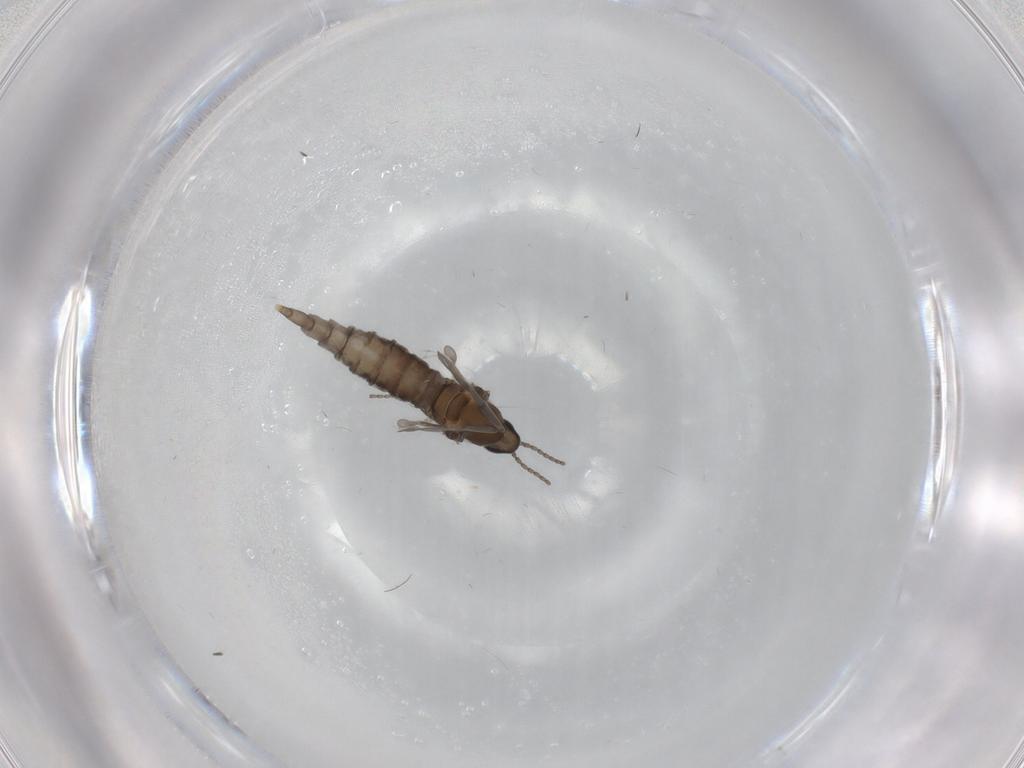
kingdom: Animalia
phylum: Arthropoda
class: Insecta
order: Diptera
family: Cecidomyiidae
